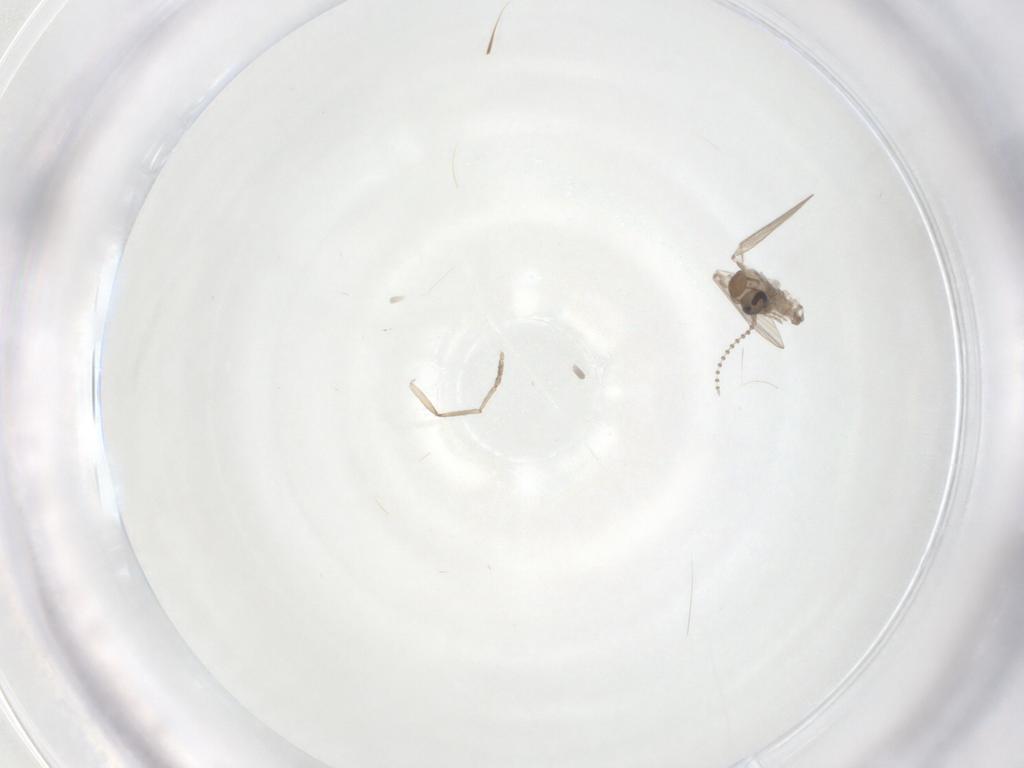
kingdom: Animalia
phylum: Arthropoda
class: Insecta
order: Diptera
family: Psychodidae
